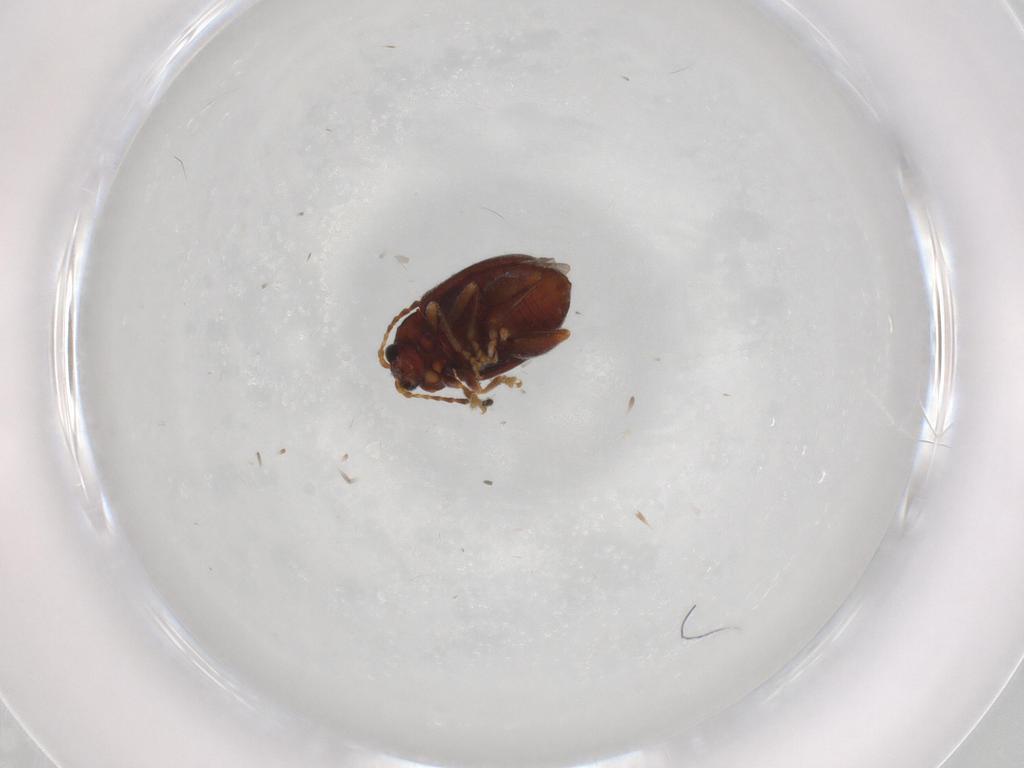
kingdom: Animalia
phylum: Arthropoda
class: Insecta
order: Coleoptera
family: Chrysomelidae
